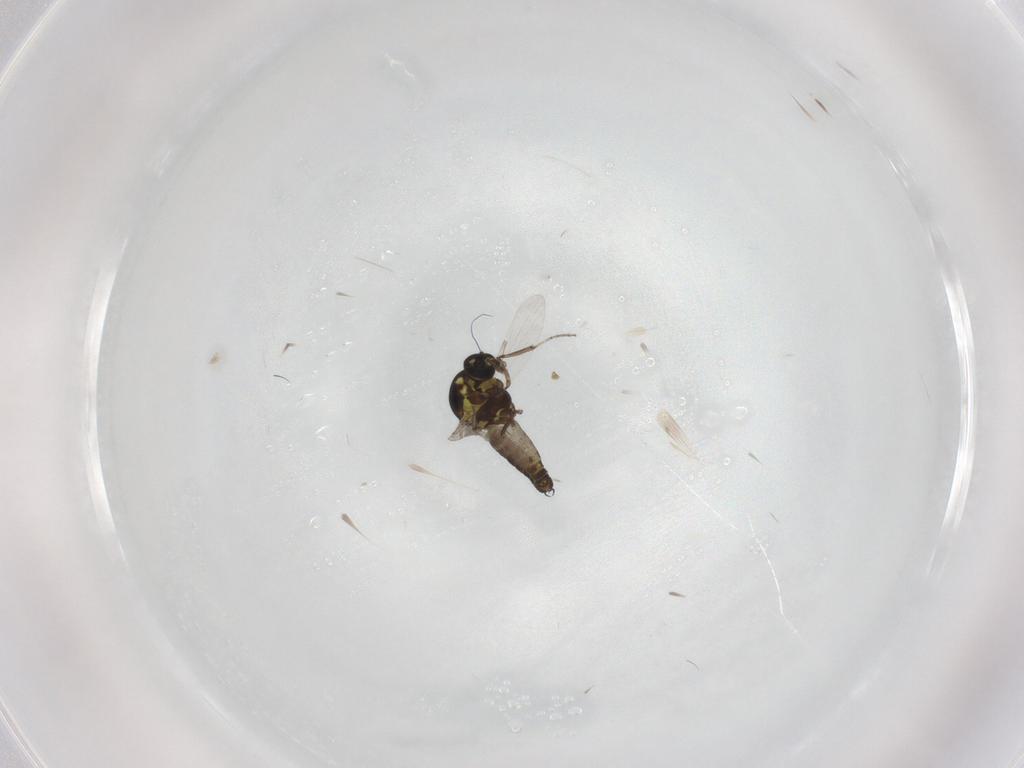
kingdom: Animalia
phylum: Arthropoda
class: Insecta
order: Diptera
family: Ceratopogonidae
